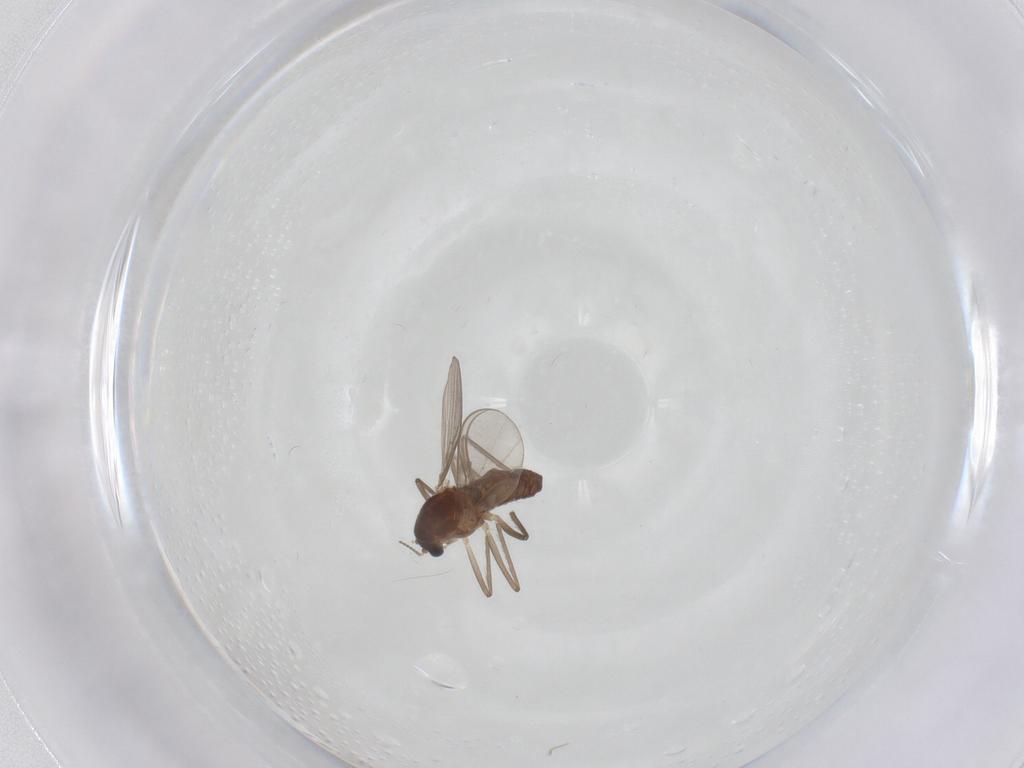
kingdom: Animalia
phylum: Arthropoda
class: Insecta
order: Diptera
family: Chironomidae
